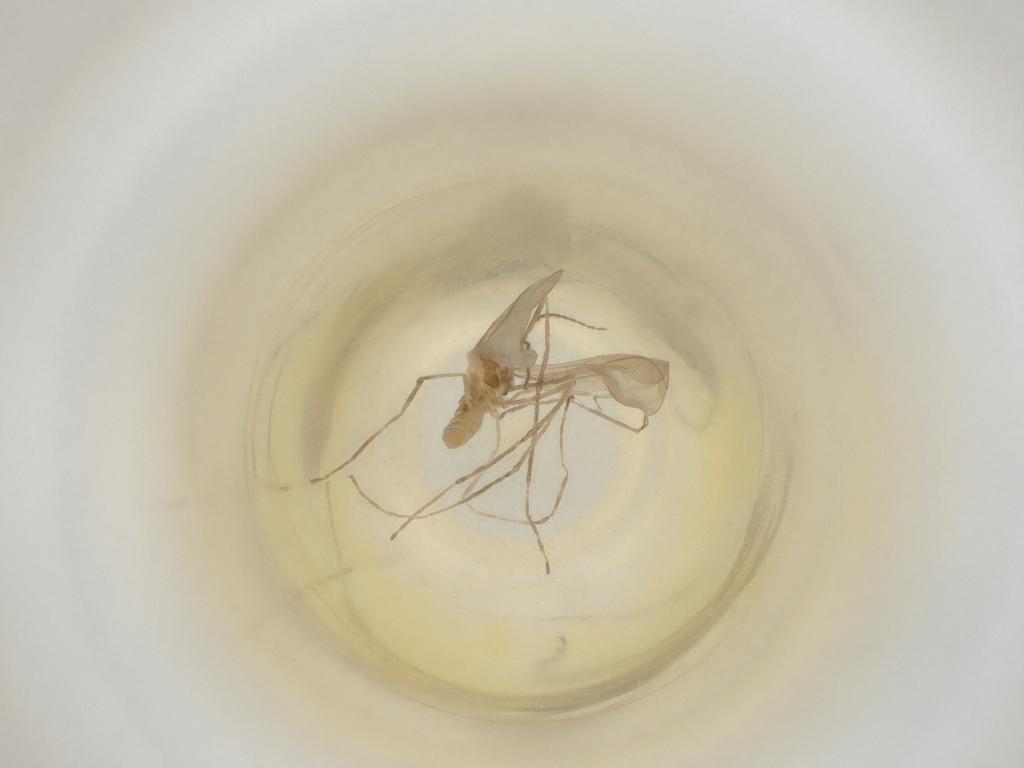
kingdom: Animalia
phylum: Arthropoda
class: Insecta
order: Diptera
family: Cecidomyiidae
